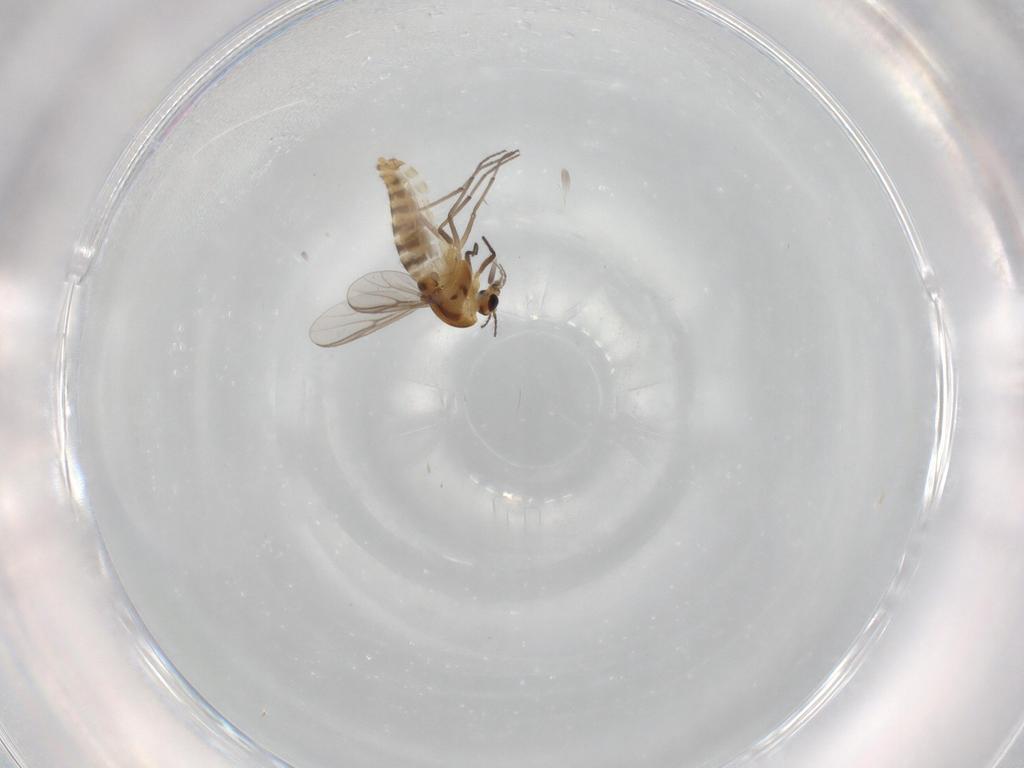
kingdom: Animalia
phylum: Arthropoda
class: Insecta
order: Diptera
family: Chironomidae
